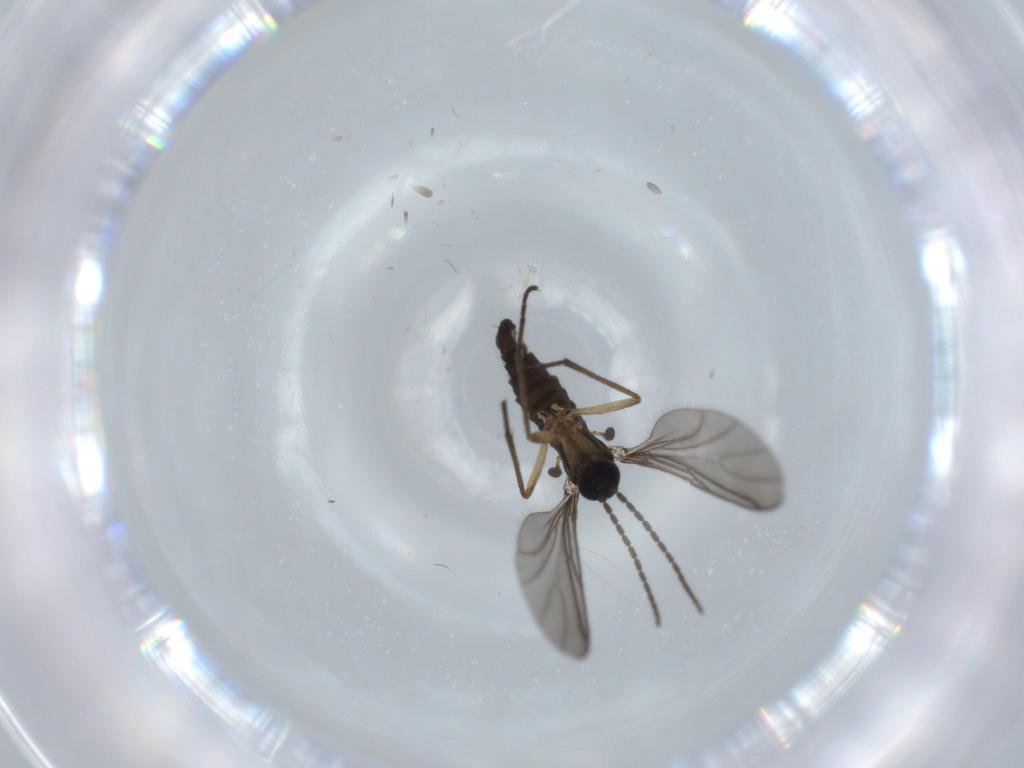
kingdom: Animalia
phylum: Arthropoda
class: Insecta
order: Diptera
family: Sciaridae
